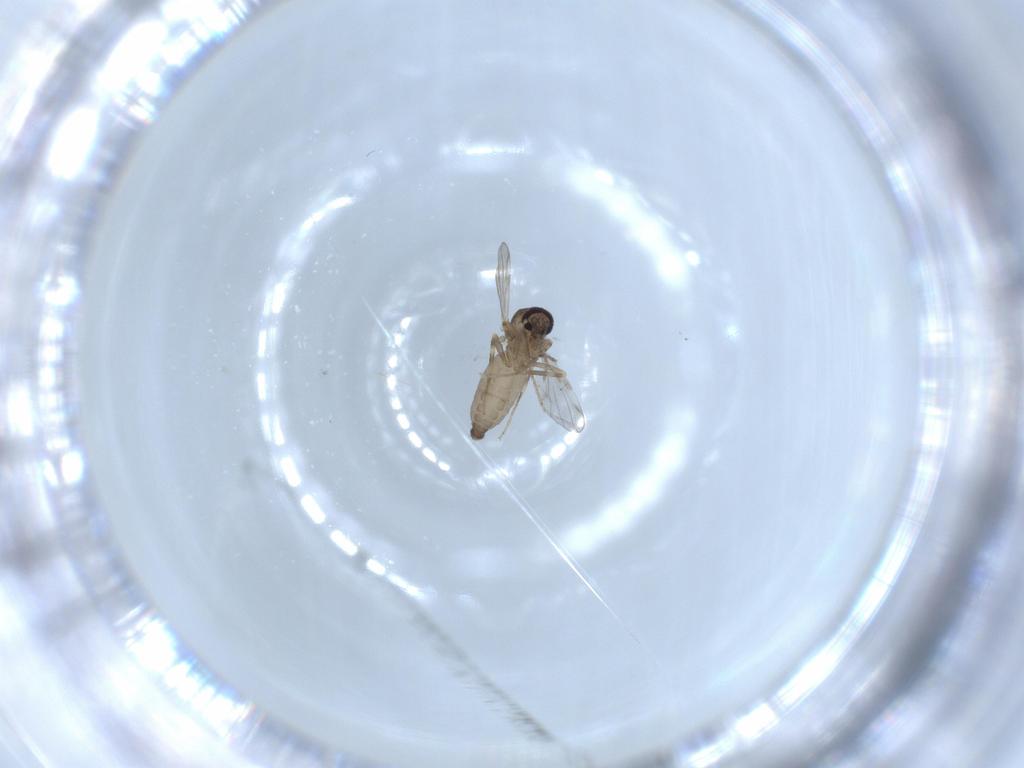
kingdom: Animalia
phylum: Arthropoda
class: Insecta
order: Diptera
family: Ceratopogonidae
